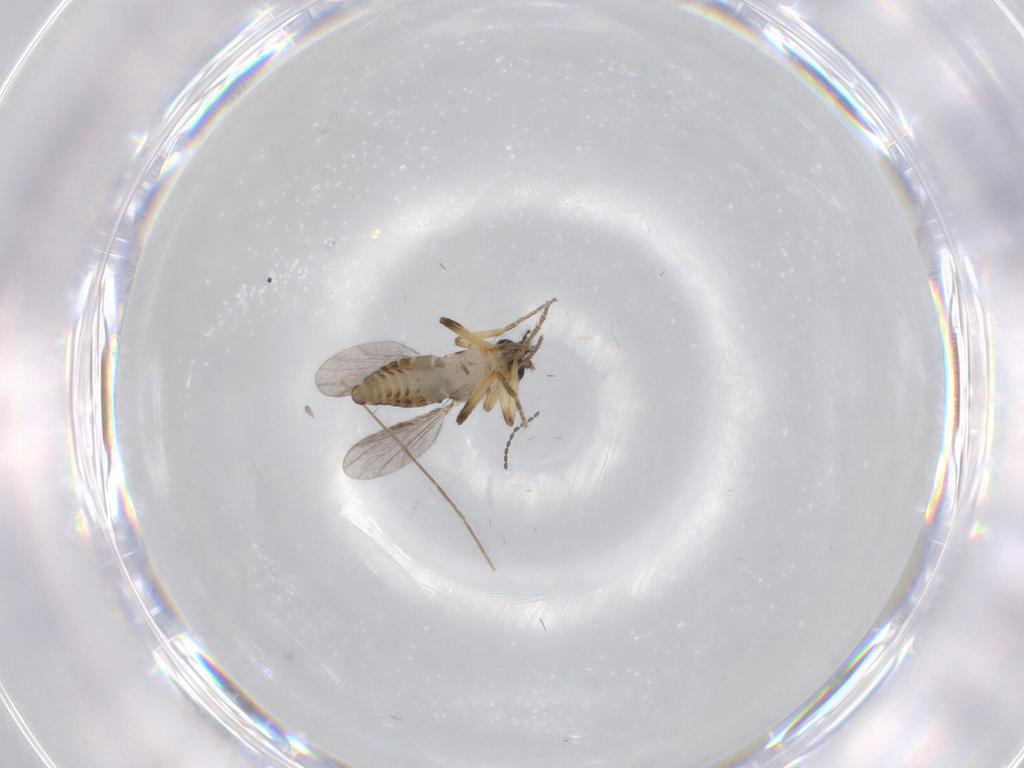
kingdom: Animalia
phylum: Arthropoda
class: Insecta
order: Diptera
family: Chironomidae
